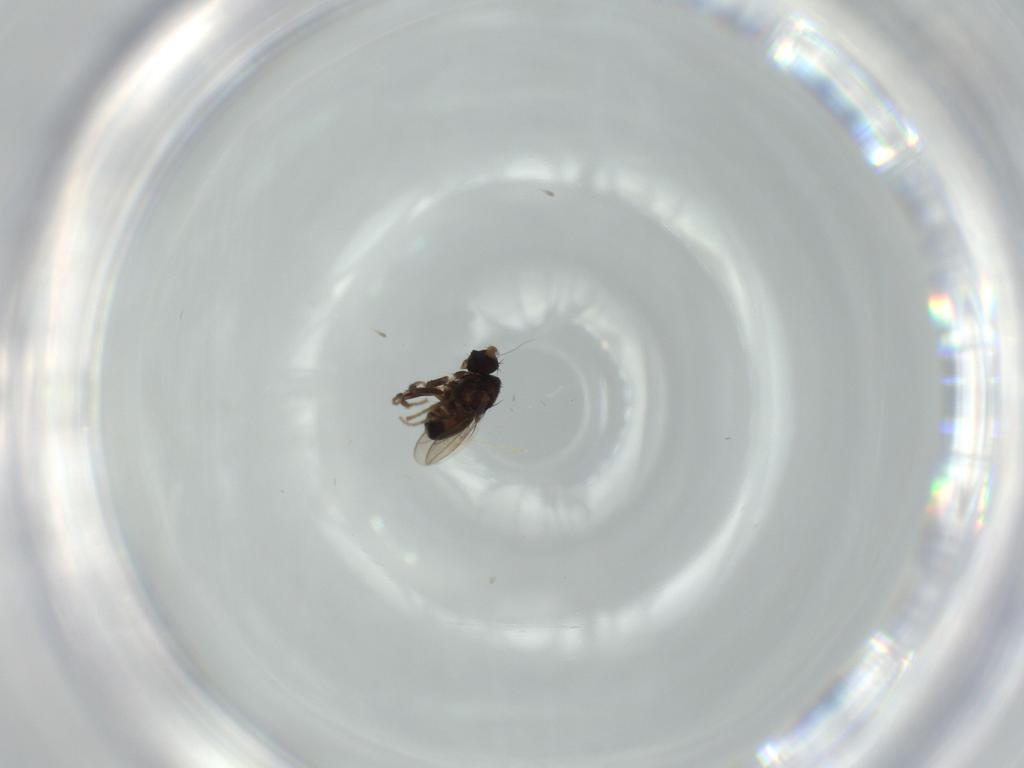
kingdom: Animalia
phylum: Arthropoda
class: Insecta
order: Diptera
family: Sphaeroceridae
